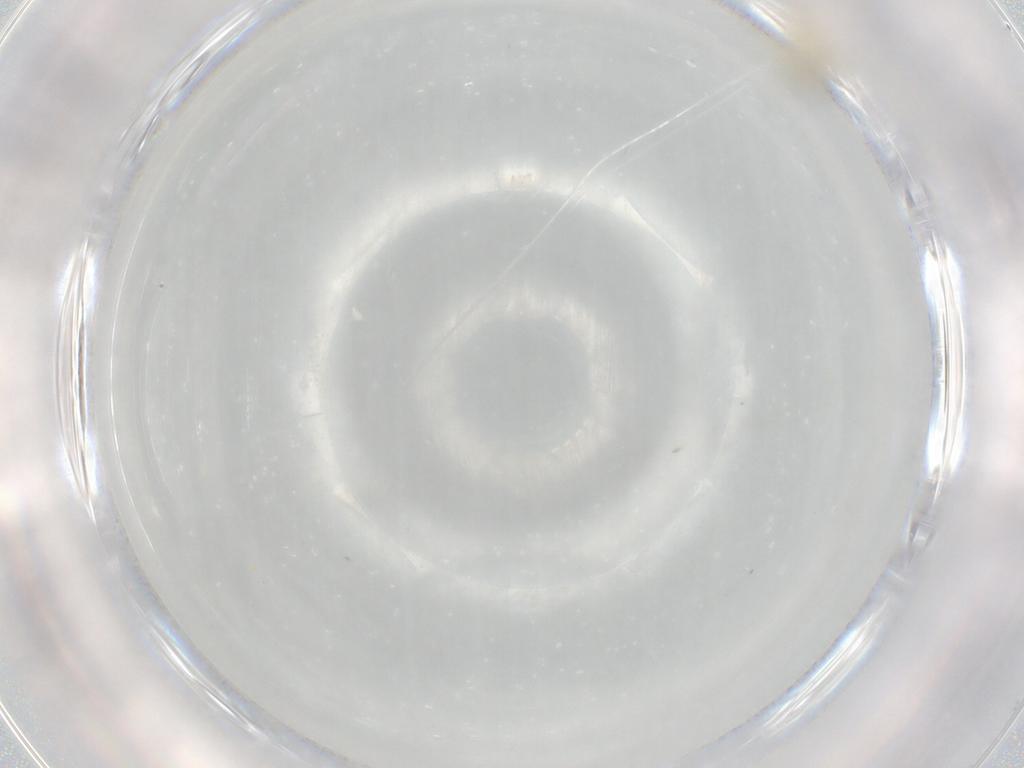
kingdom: Animalia
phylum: Arthropoda
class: Insecta
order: Diptera
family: Cecidomyiidae
